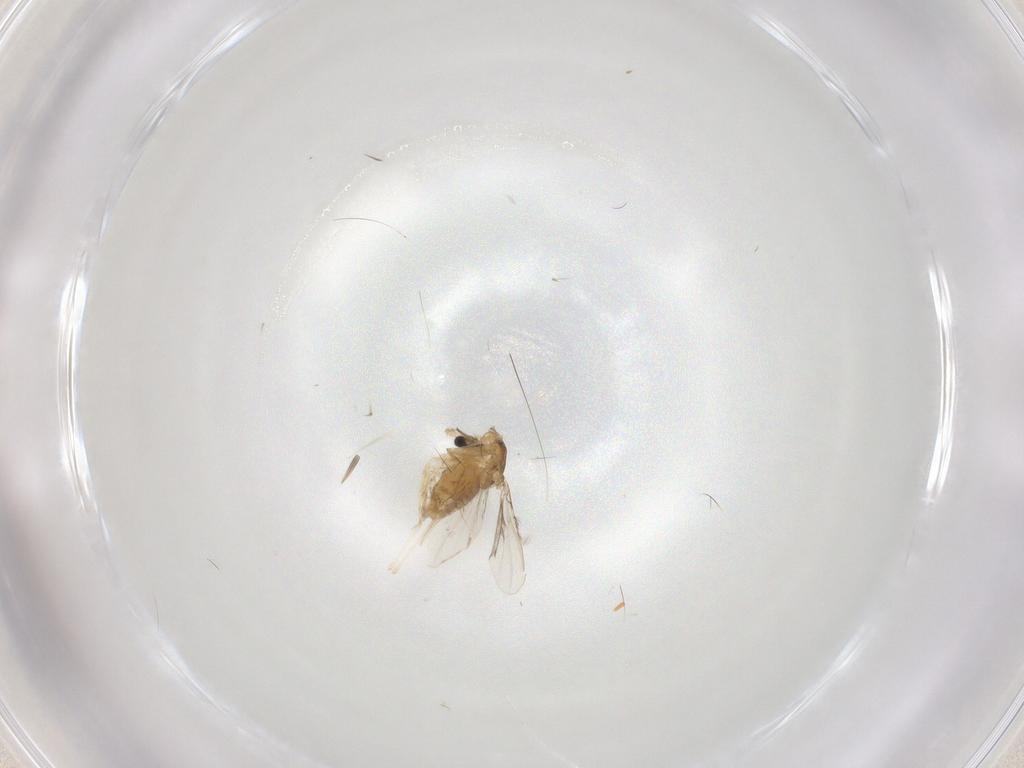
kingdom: Animalia
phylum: Arthropoda
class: Insecta
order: Diptera
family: Chironomidae
